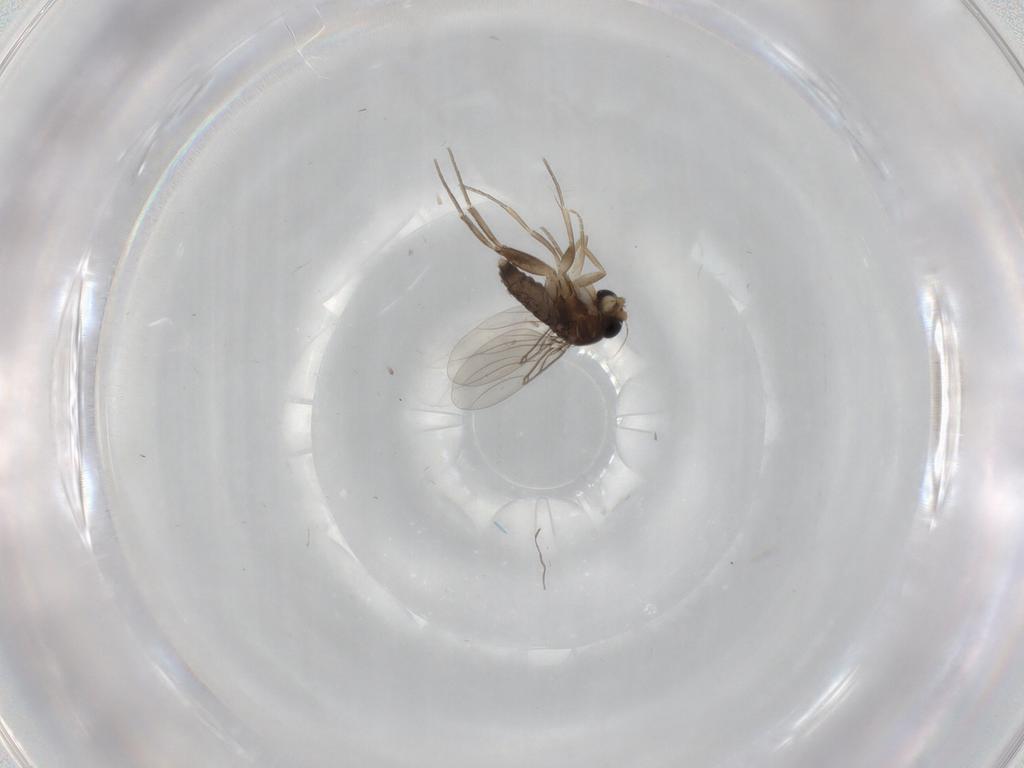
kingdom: Animalia
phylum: Arthropoda
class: Insecta
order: Diptera
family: Phoridae
